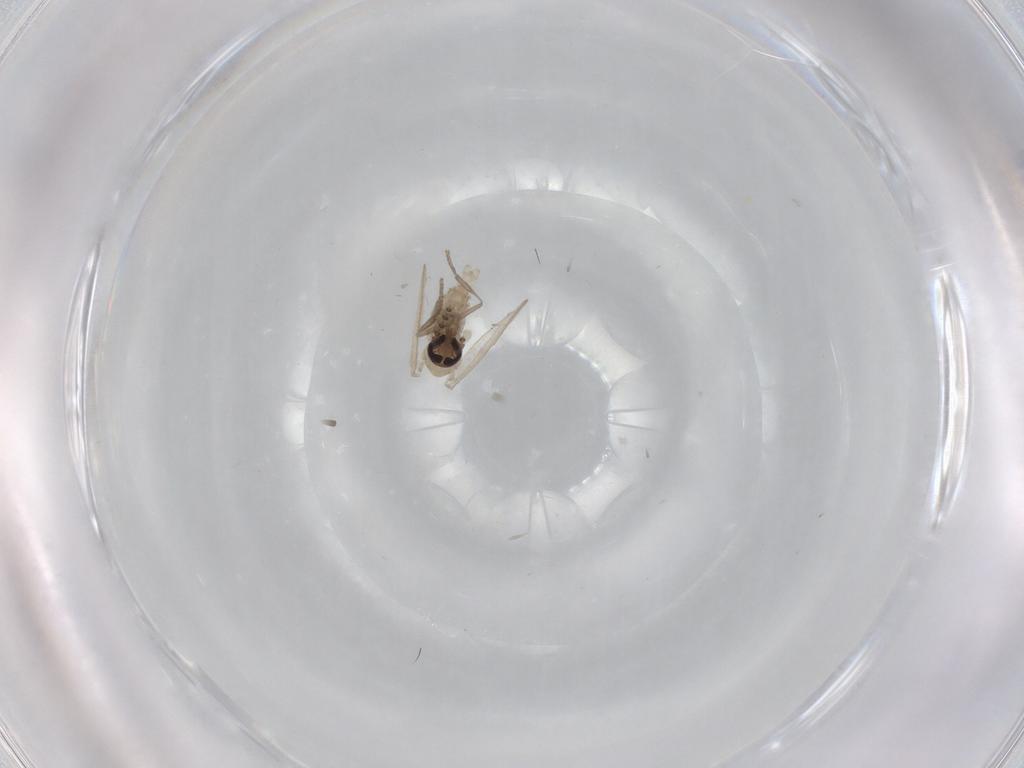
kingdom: Animalia
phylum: Arthropoda
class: Insecta
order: Diptera
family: Psychodidae
